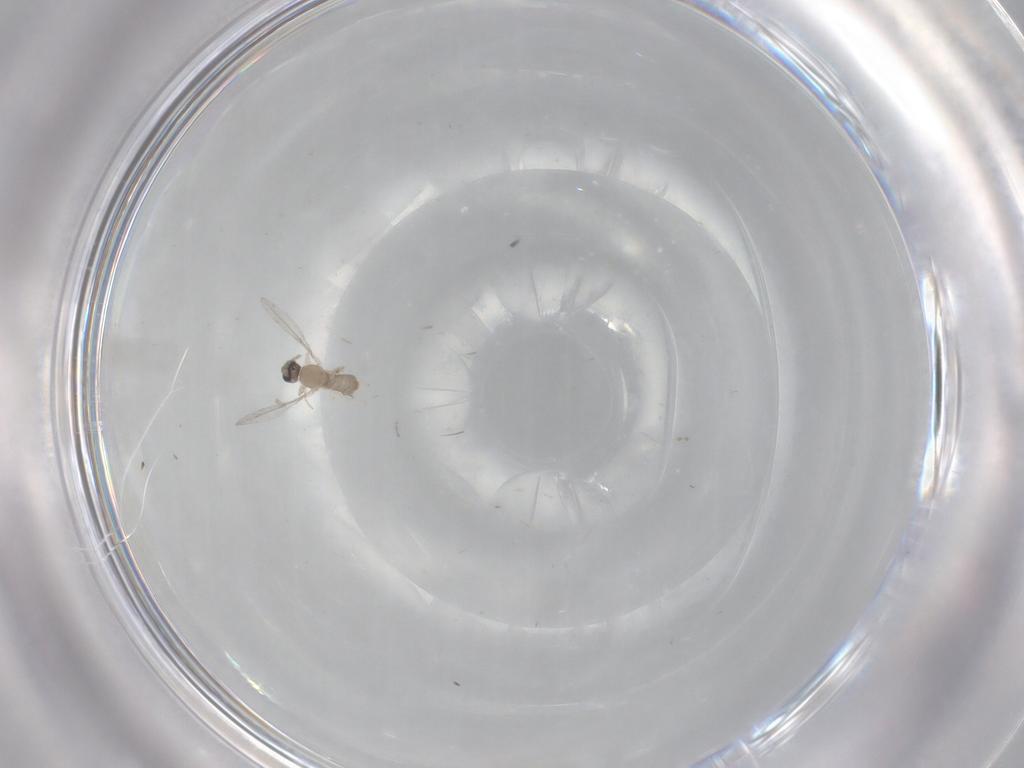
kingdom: Animalia
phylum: Arthropoda
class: Insecta
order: Diptera
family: Cecidomyiidae
